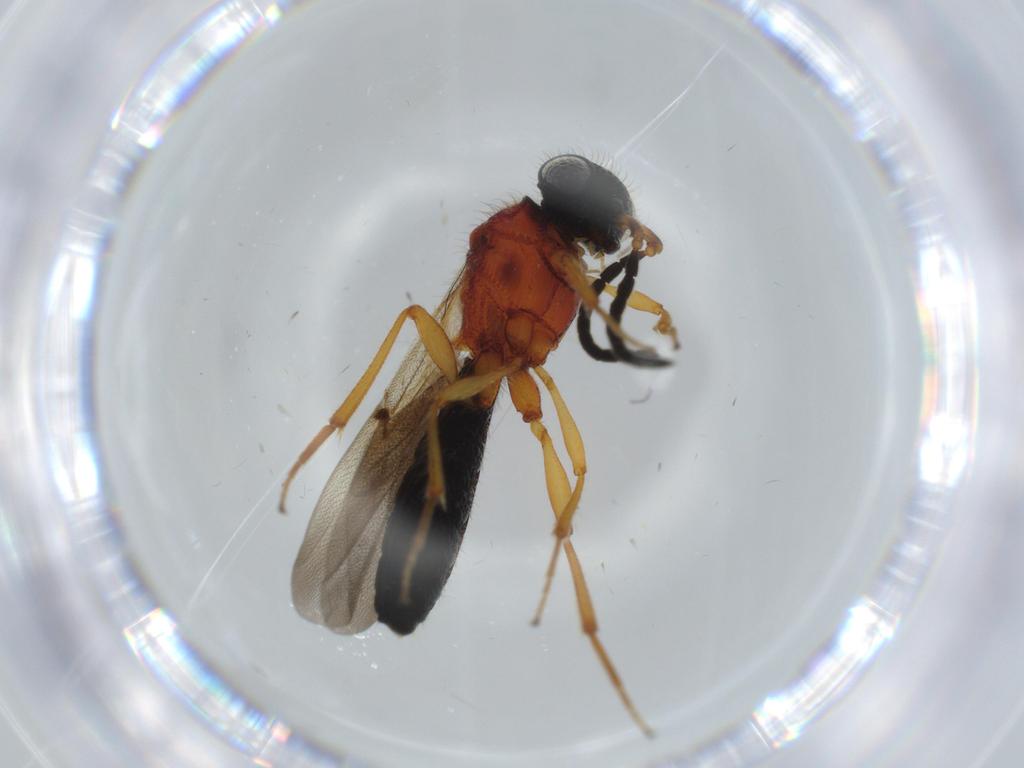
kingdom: Animalia
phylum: Arthropoda
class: Insecta
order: Hymenoptera
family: Scelionidae
